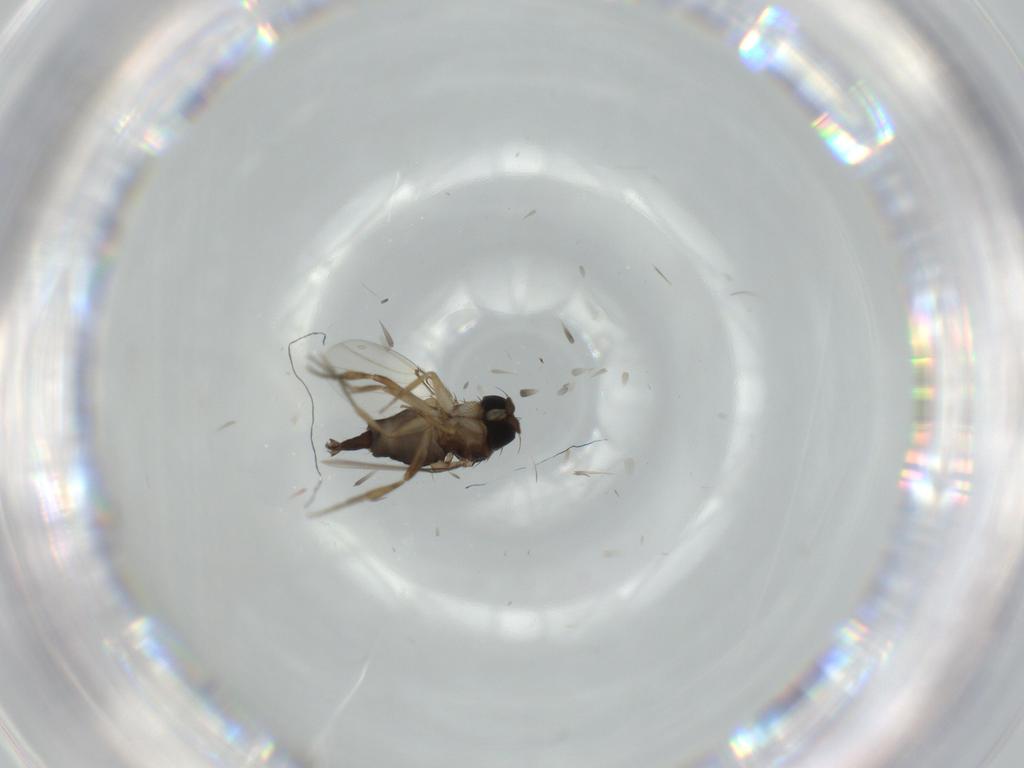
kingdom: Animalia
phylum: Arthropoda
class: Insecta
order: Diptera
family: Phoridae
